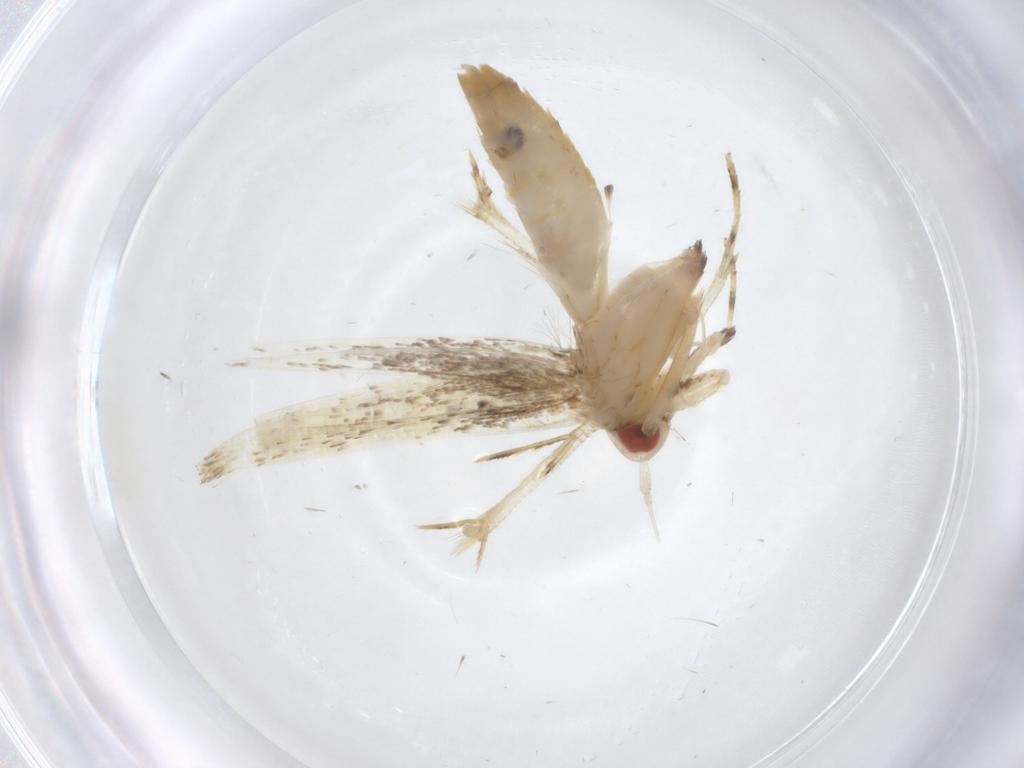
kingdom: Animalia
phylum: Arthropoda
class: Insecta
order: Lepidoptera
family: Cosmopterigidae
